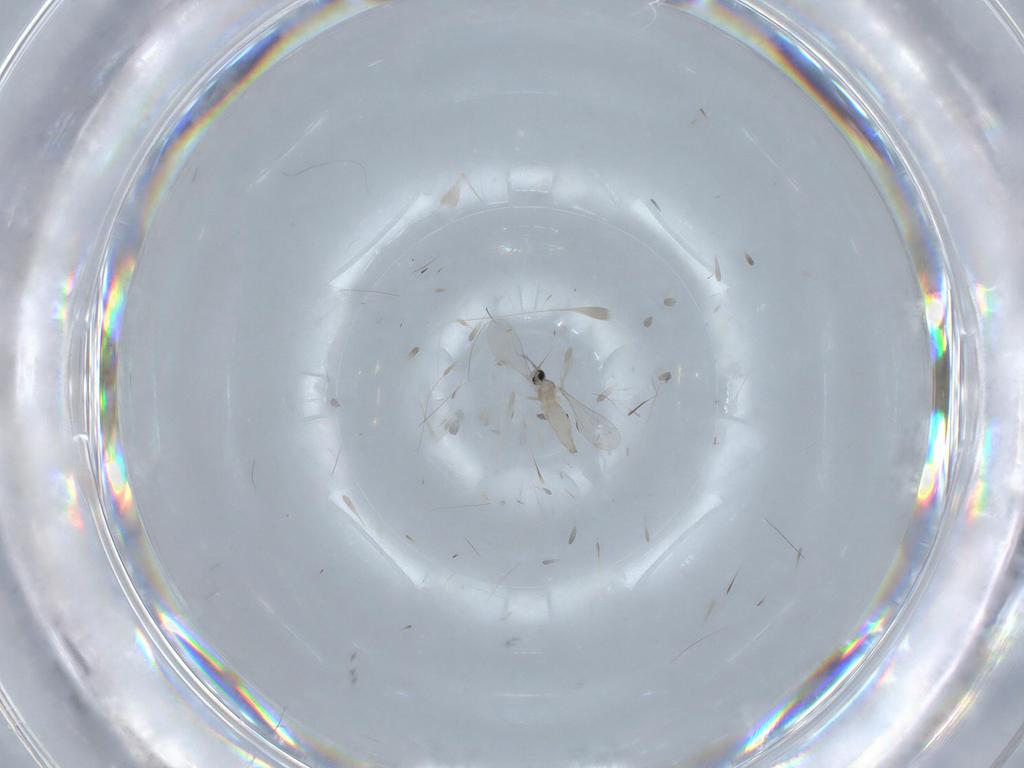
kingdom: Animalia
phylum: Arthropoda
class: Insecta
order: Diptera
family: Cecidomyiidae
